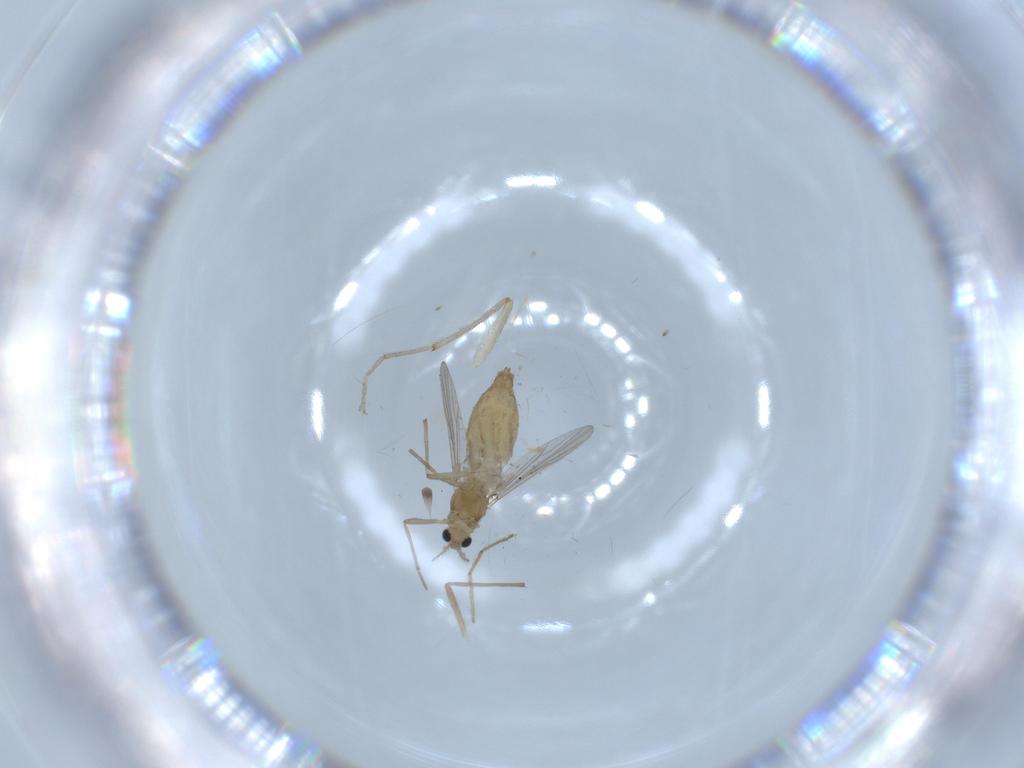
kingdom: Animalia
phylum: Arthropoda
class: Insecta
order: Diptera
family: Chironomidae
